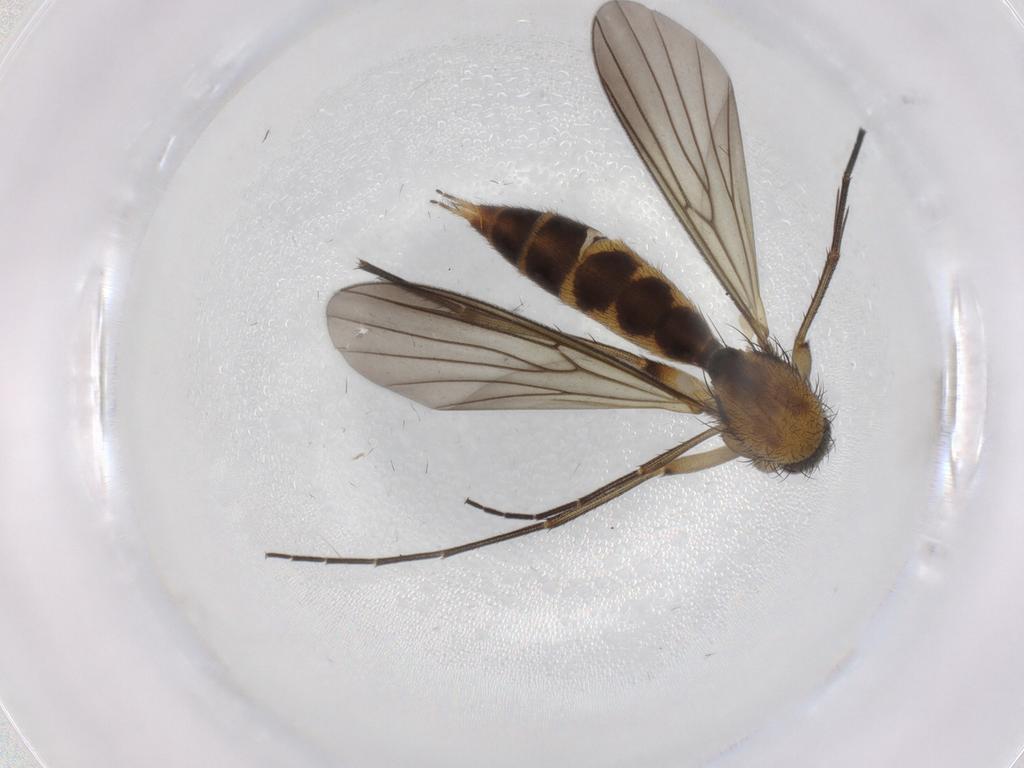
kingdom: Animalia
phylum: Arthropoda
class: Insecta
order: Diptera
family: Mycetophilidae
